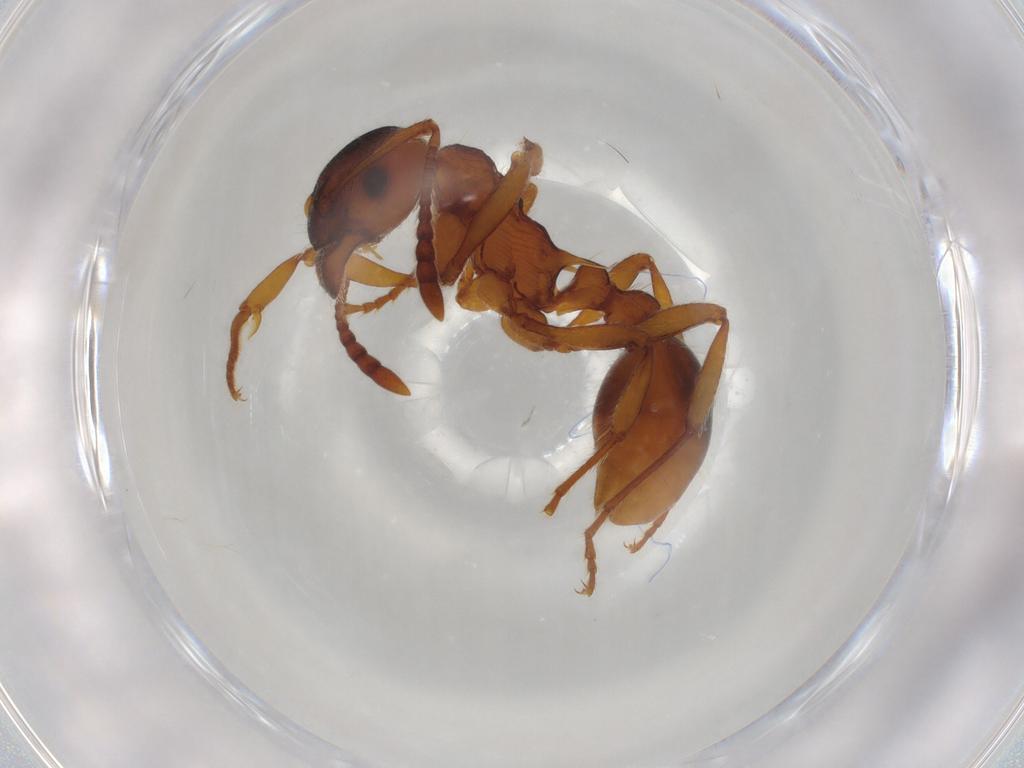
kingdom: Animalia
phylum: Arthropoda
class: Insecta
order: Hymenoptera
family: Formicidae
